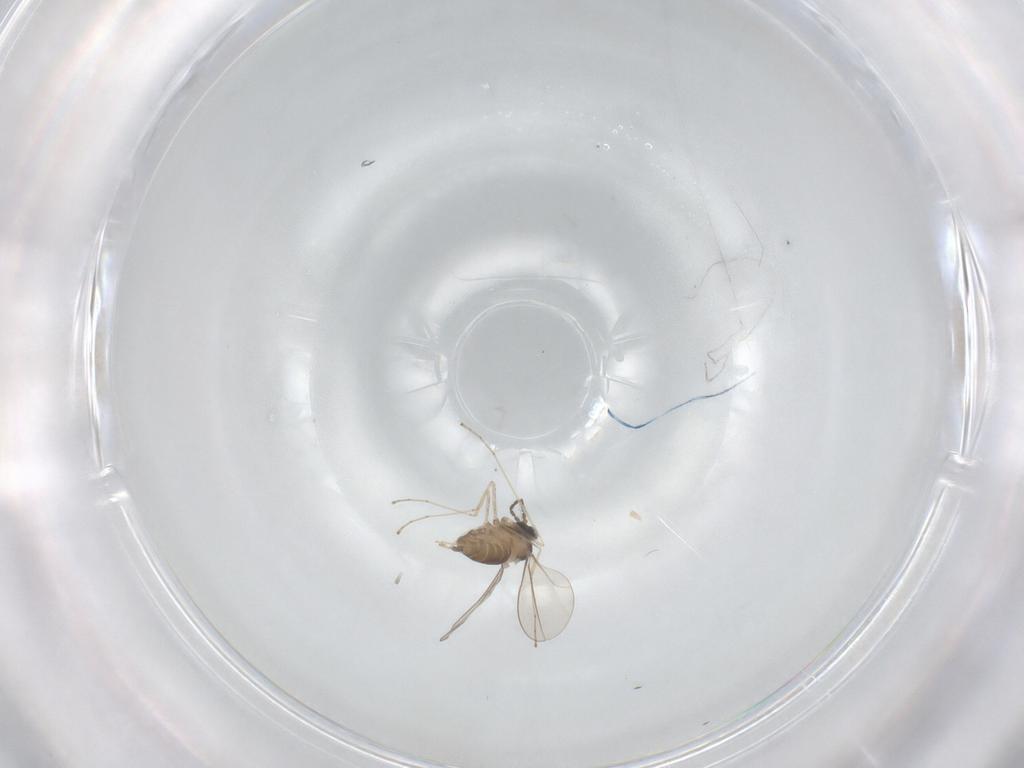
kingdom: Animalia
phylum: Arthropoda
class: Insecta
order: Diptera
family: Cecidomyiidae
